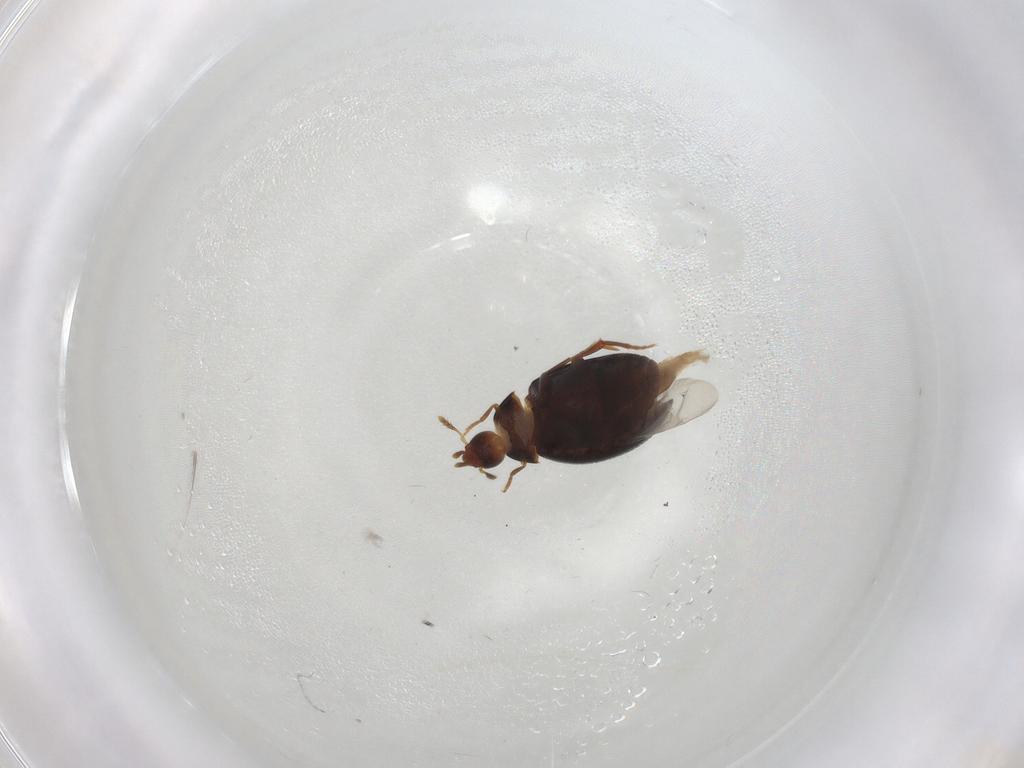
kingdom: Animalia
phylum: Arthropoda
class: Insecta
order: Coleoptera
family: Melandryidae
